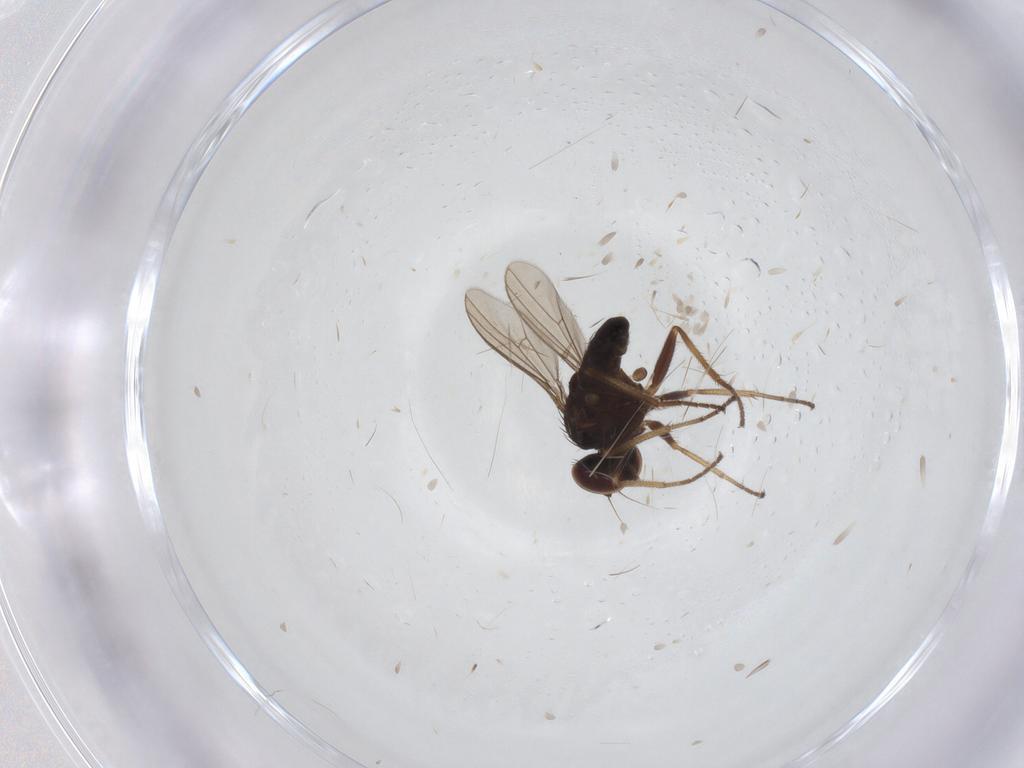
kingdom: Animalia
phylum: Arthropoda
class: Insecta
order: Diptera
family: Dolichopodidae
